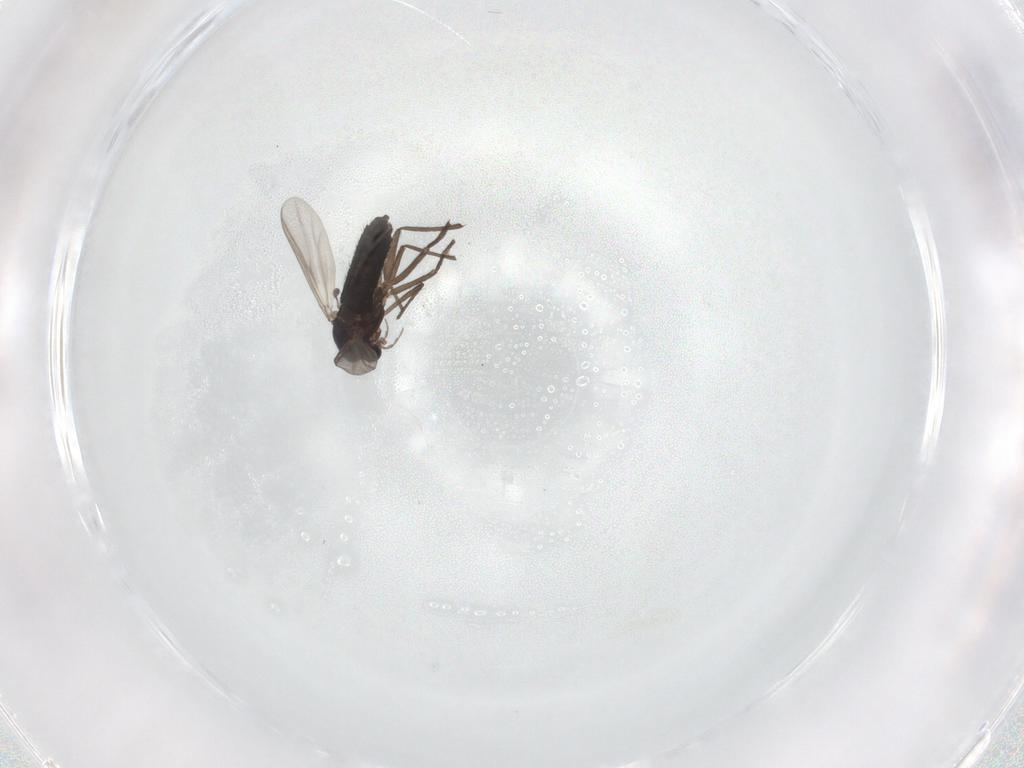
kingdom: Animalia
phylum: Arthropoda
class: Insecta
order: Diptera
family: Chironomidae
